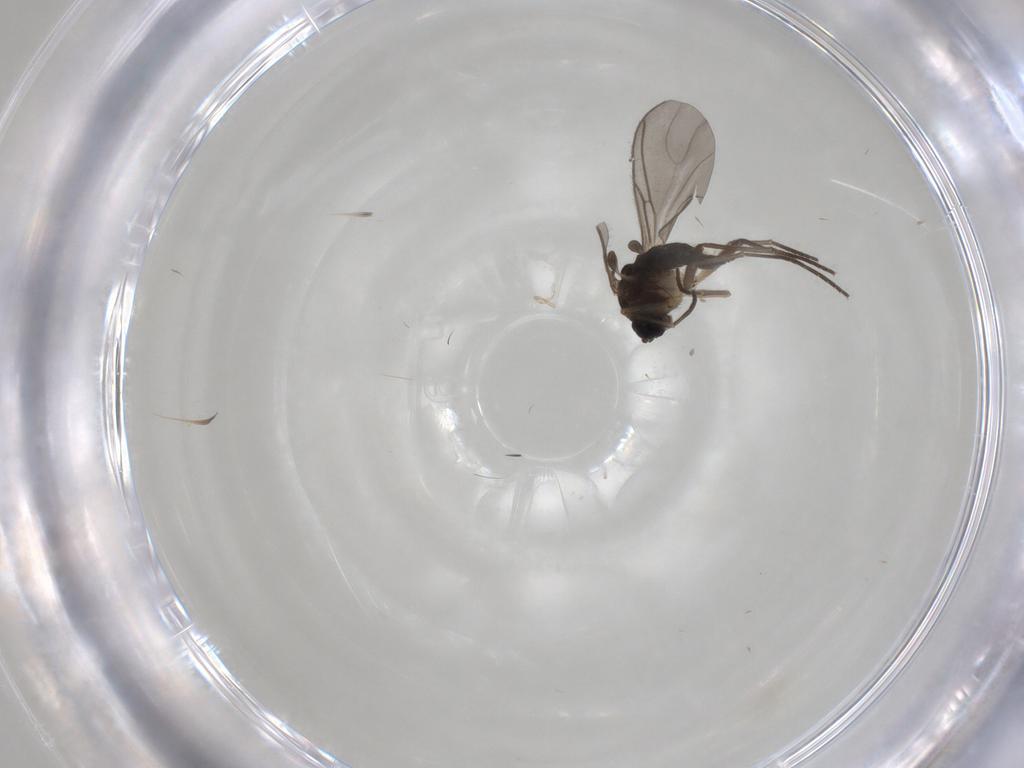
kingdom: Animalia
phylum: Arthropoda
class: Insecta
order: Diptera
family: Sciaridae
